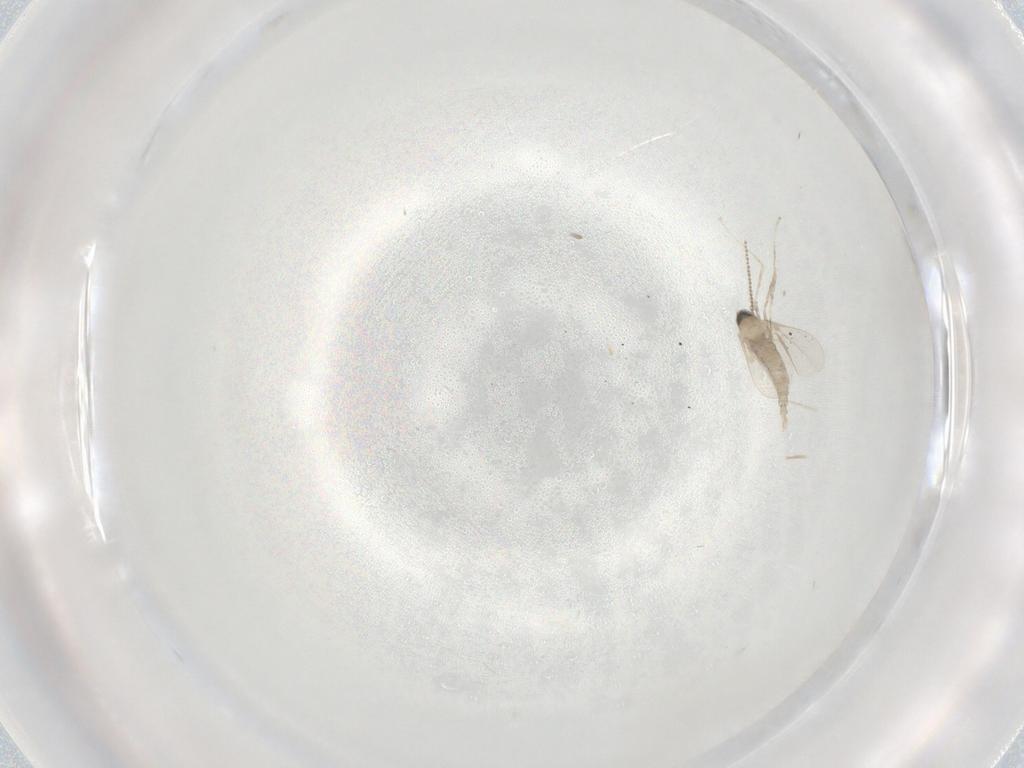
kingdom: Animalia
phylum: Arthropoda
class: Insecta
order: Diptera
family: Cecidomyiidae
